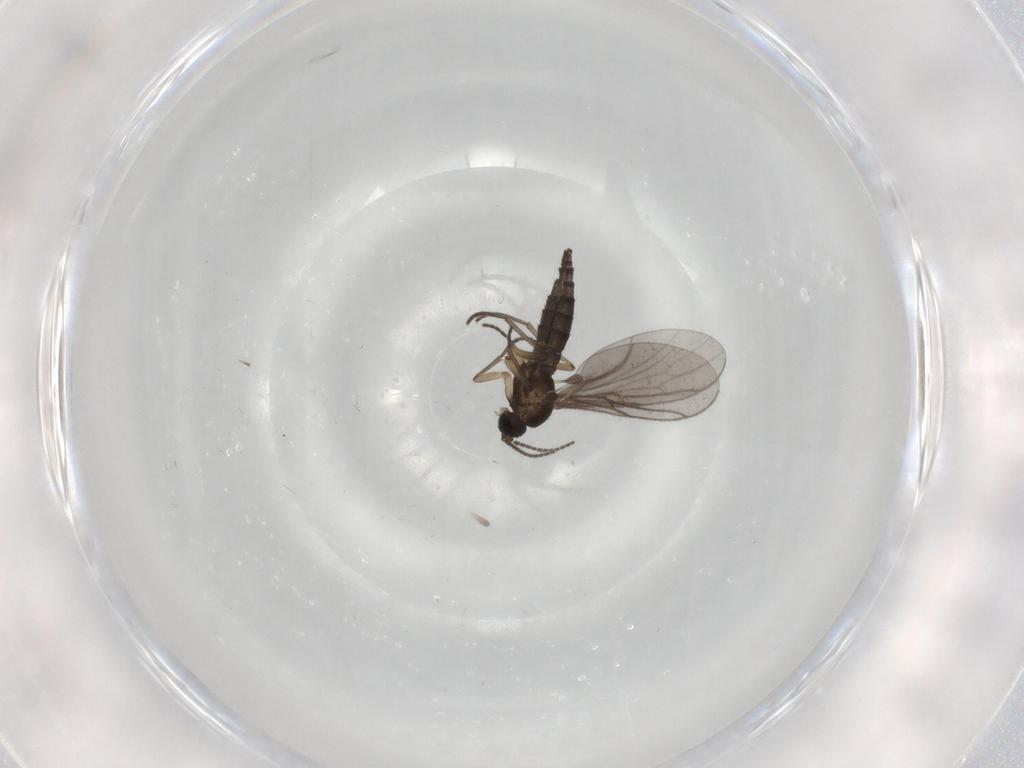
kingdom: Animalia
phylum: Arthropoda
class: Insecta
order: Diptera
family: Sciaridae
